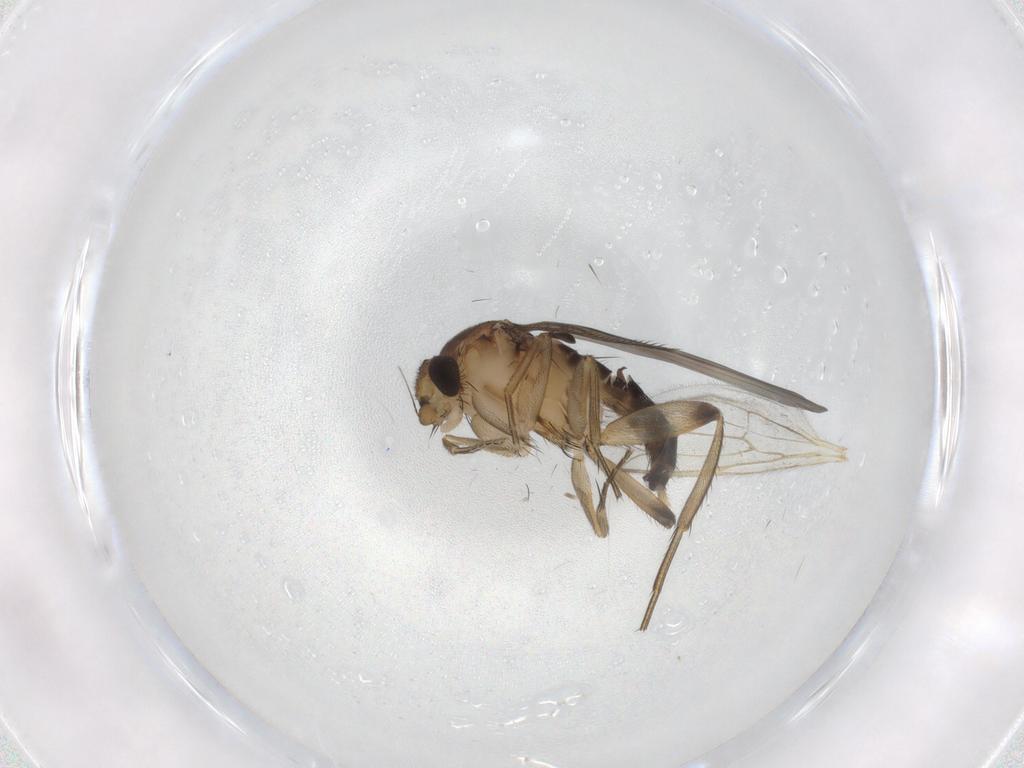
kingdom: Animalia
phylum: Arthropoda
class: Insecta
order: Diptera
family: Phoridae
